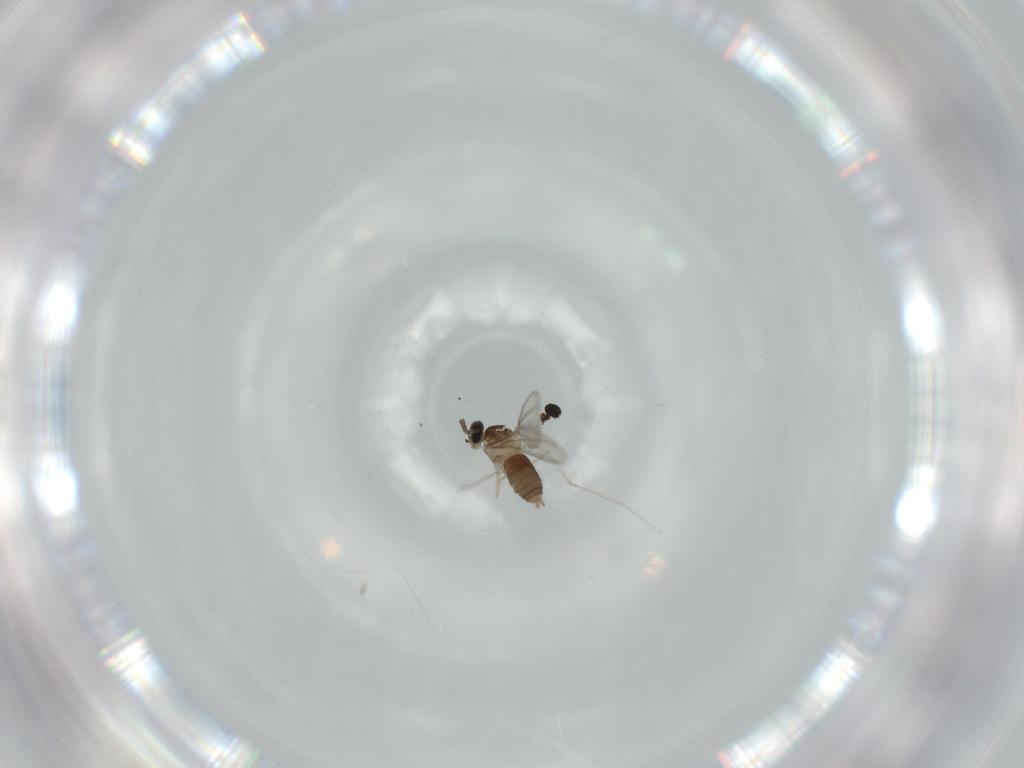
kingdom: Animalia
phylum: Arthropoda
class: Insecta
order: Diptera
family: Cecidomyiidae
